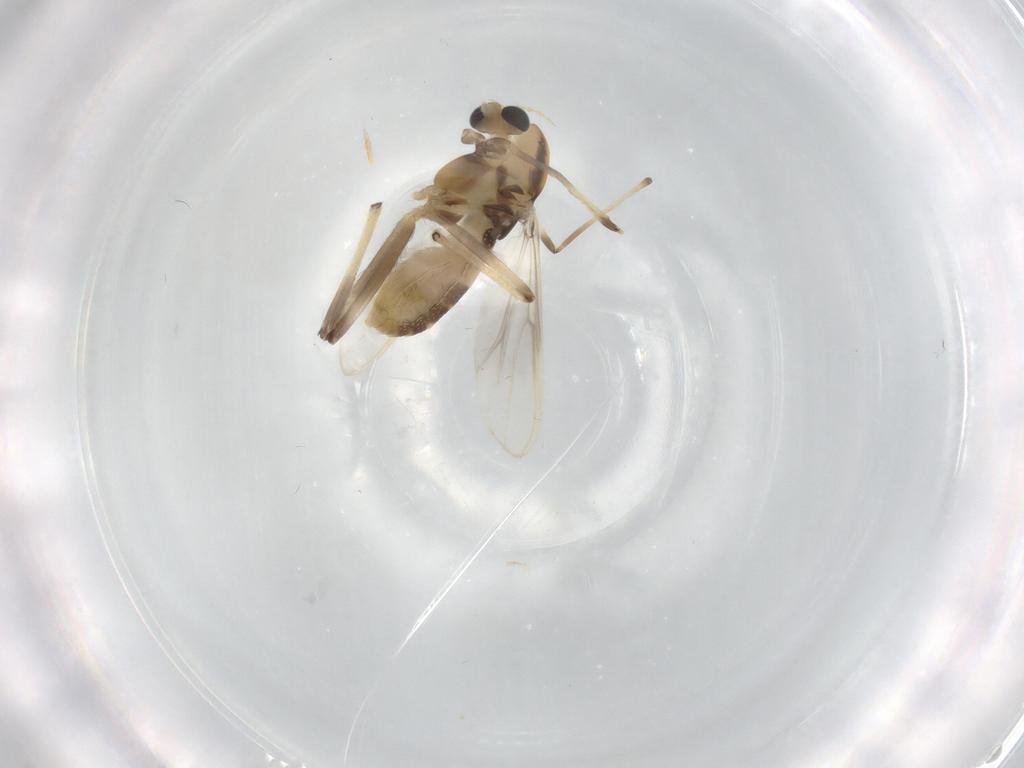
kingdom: Animalia
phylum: Arthropoda
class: Insecta
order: Diptera
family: Chironomidae
